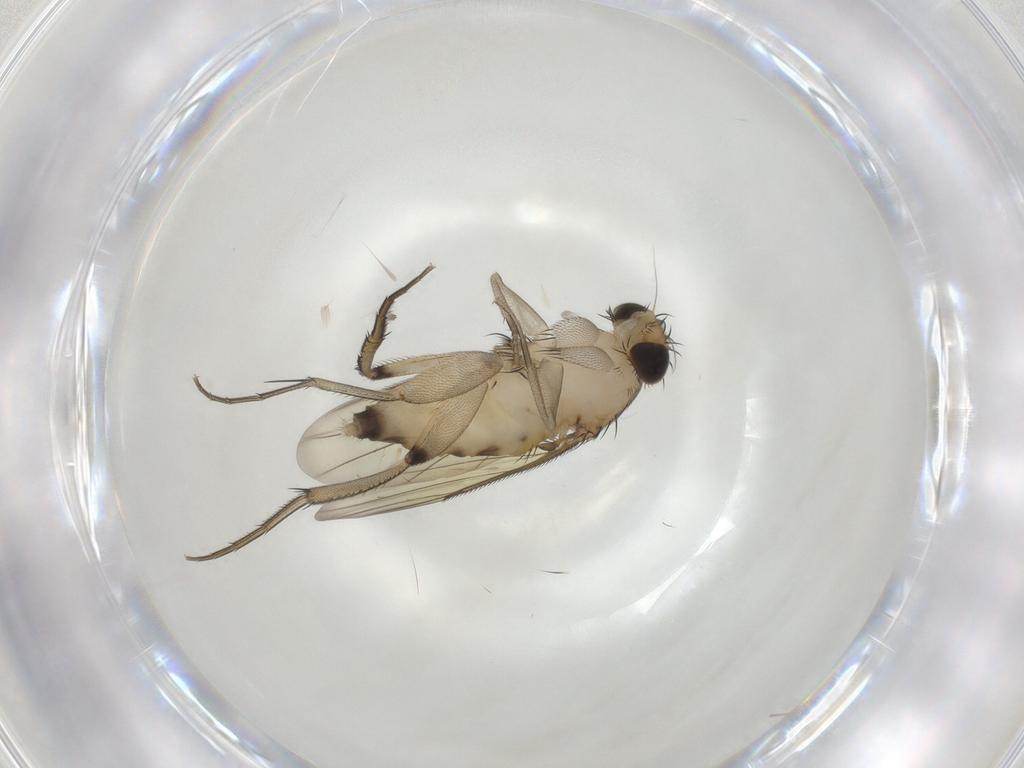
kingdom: Animalia
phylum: Arthropoda
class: Insecta
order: Diptera
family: Phoridae
